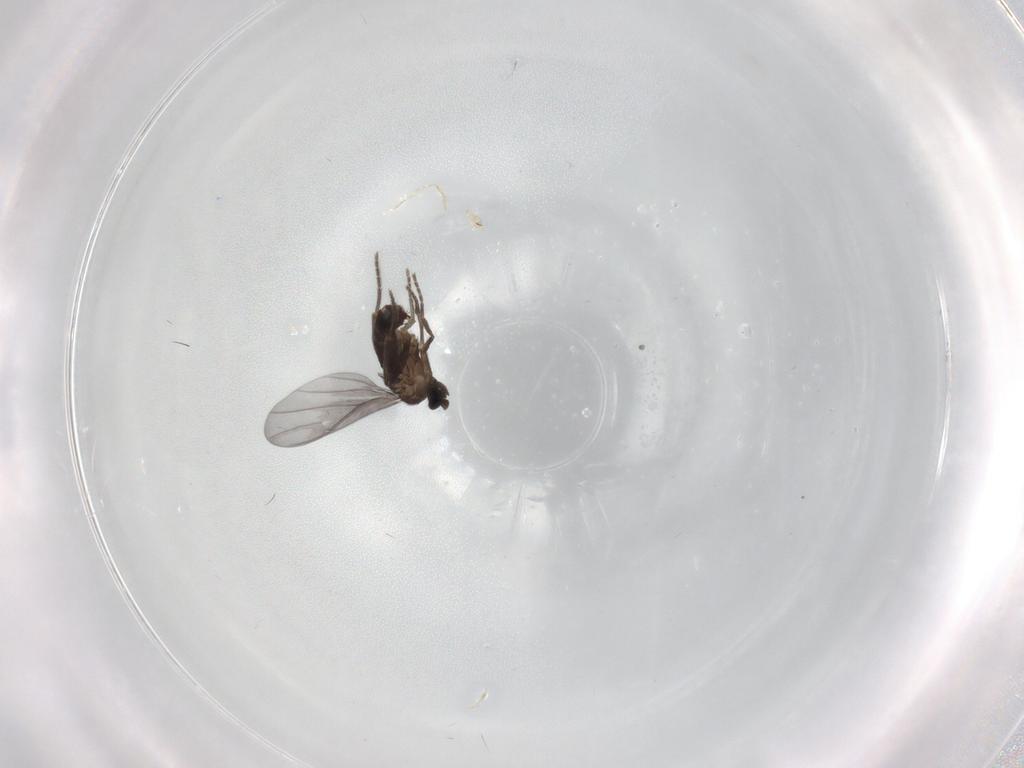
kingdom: Animalia
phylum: Arthropoda
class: Insecta
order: Diptera
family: Phoridae
